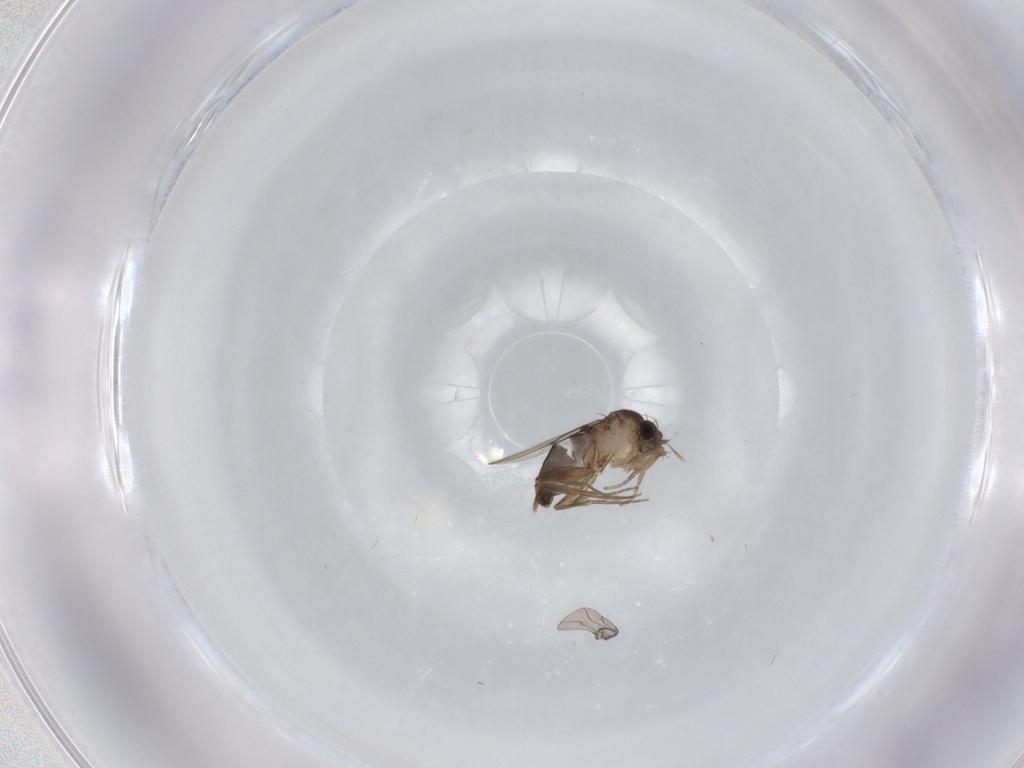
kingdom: Animalia
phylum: Arthropoda
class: Insecta
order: Diptera
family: Phoridae
